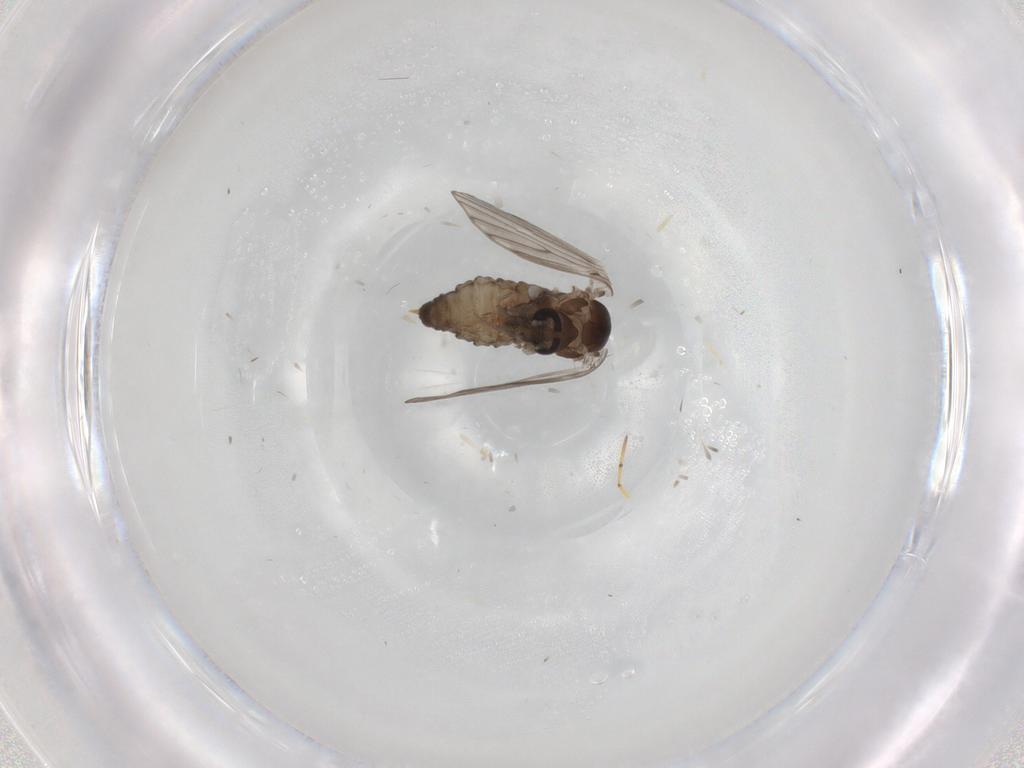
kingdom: Animalia
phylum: Arthropoda
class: Insecta
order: Diptera
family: Psychodidae
